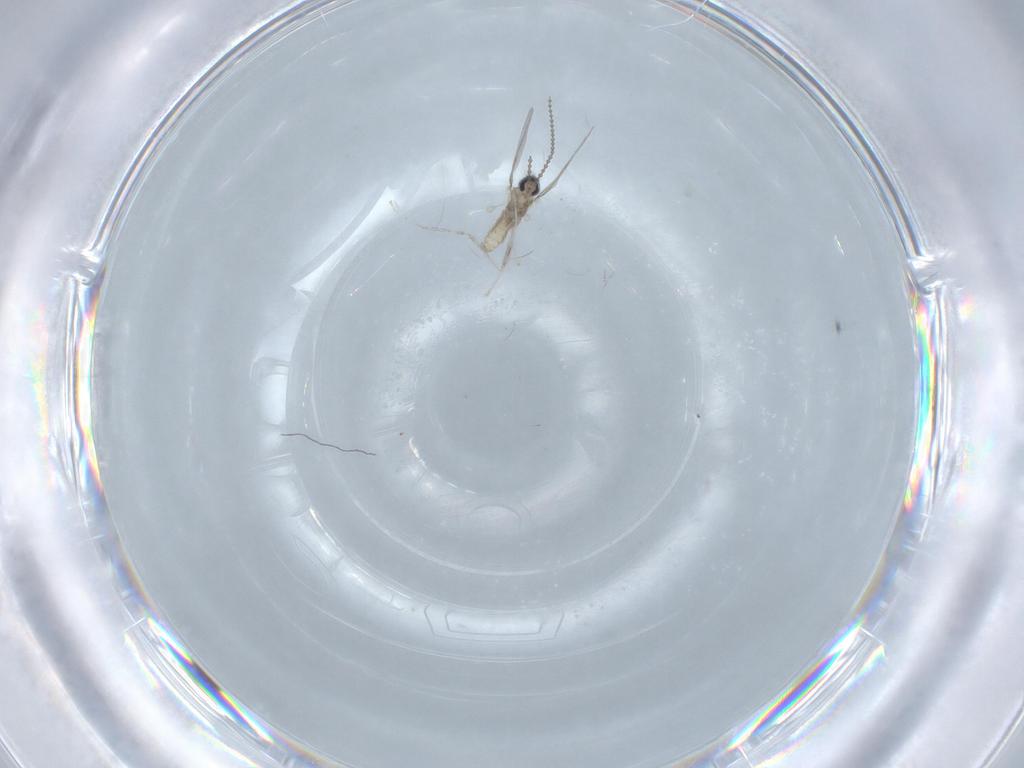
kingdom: Animalia
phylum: Arthropoda
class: Insecta
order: Diptera
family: Cecidomyiidae
